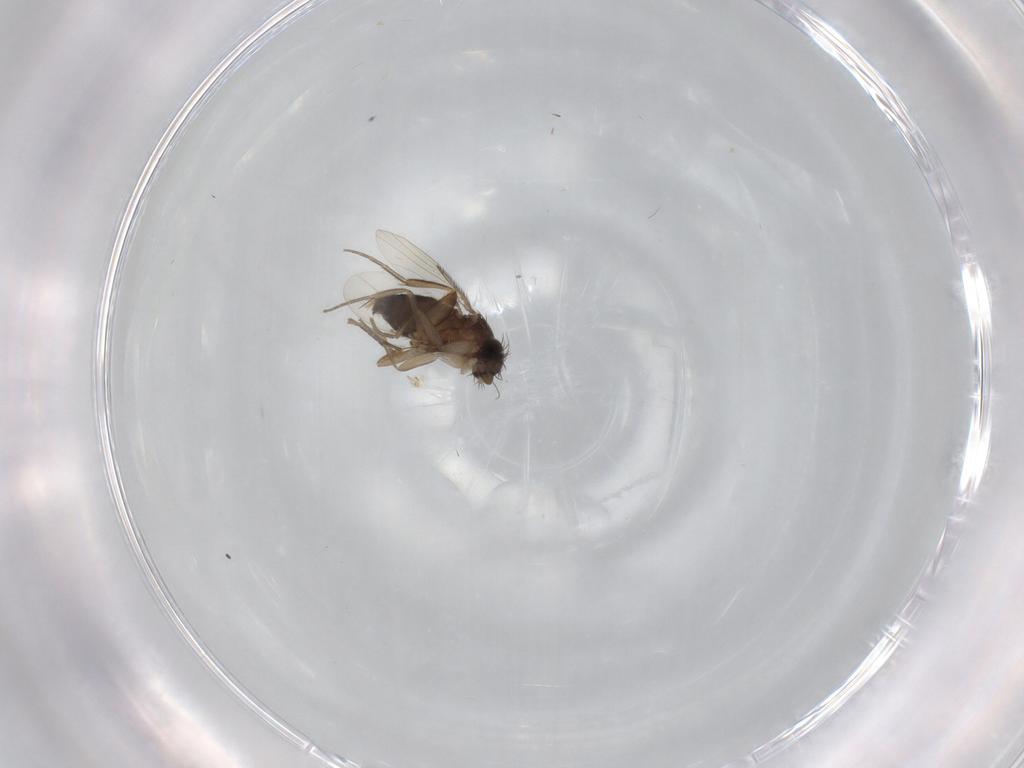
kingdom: Animalia
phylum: Arthropoda
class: Insecta
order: Diptera
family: Phoridae
